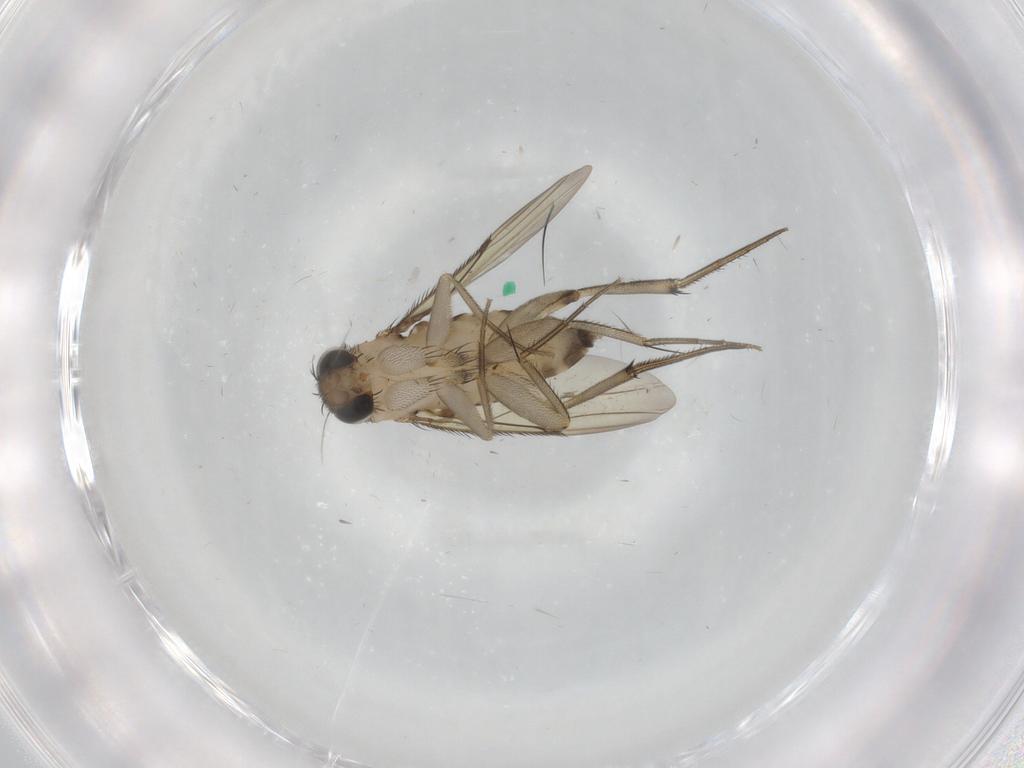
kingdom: Animalia
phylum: Arthropoda
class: Insecta
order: Diptera
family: Phoridae
